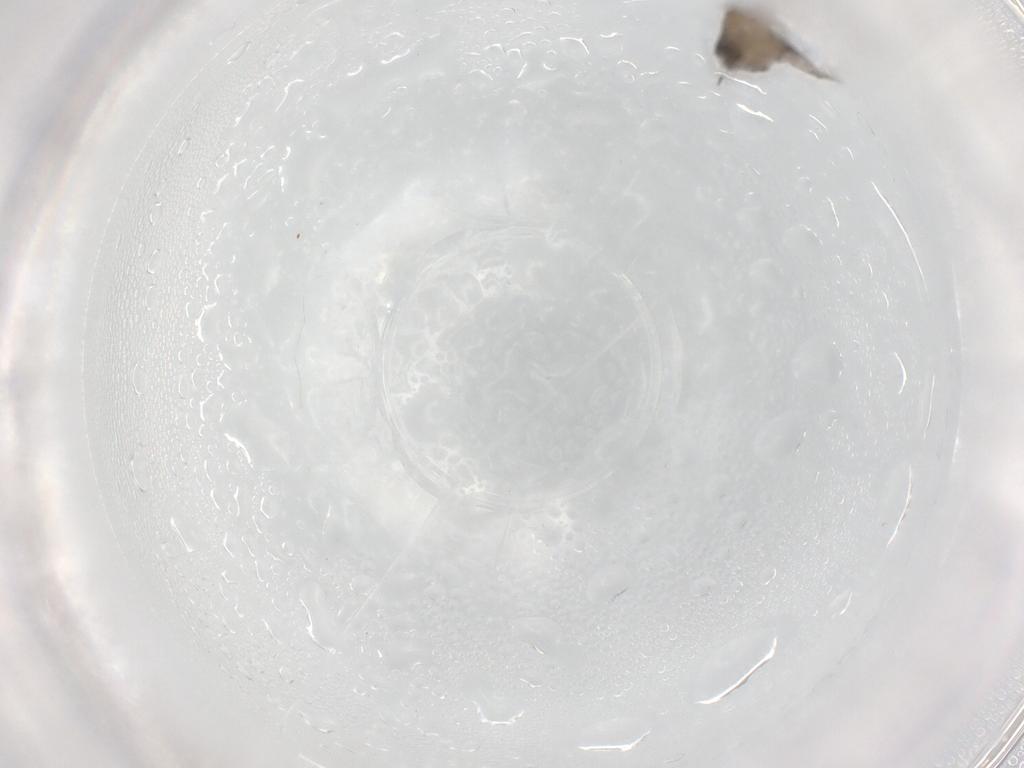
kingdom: Animalia
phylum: Arthropoda
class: Insecta
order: Diptera
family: Psychodidae
